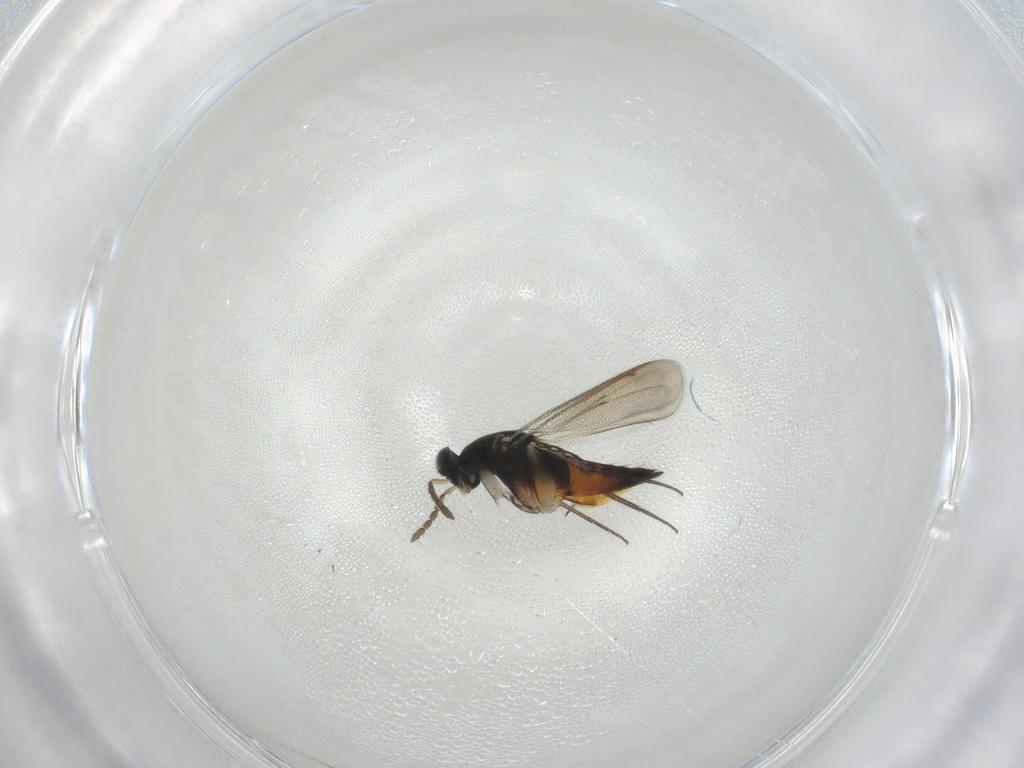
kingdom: Animalia
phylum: Arthropoda
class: Insecta
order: Hymenoptera
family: Eulophidae
